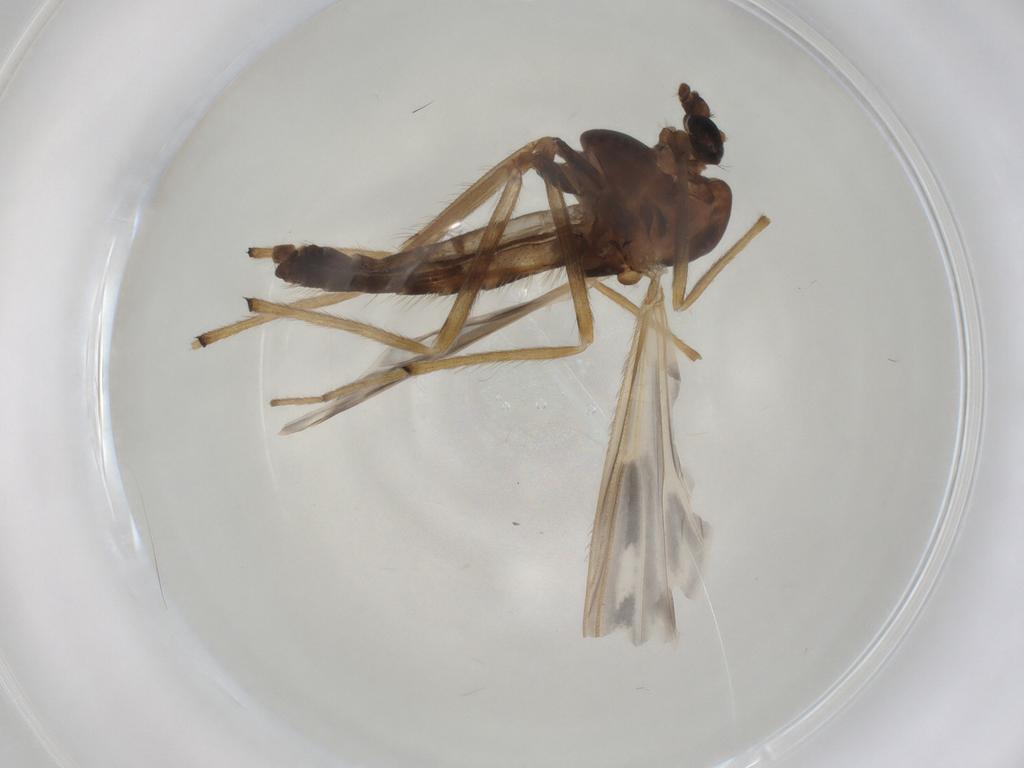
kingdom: Animalia
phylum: Arthropoda
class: Insecta
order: Diptera
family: Chironomidae
